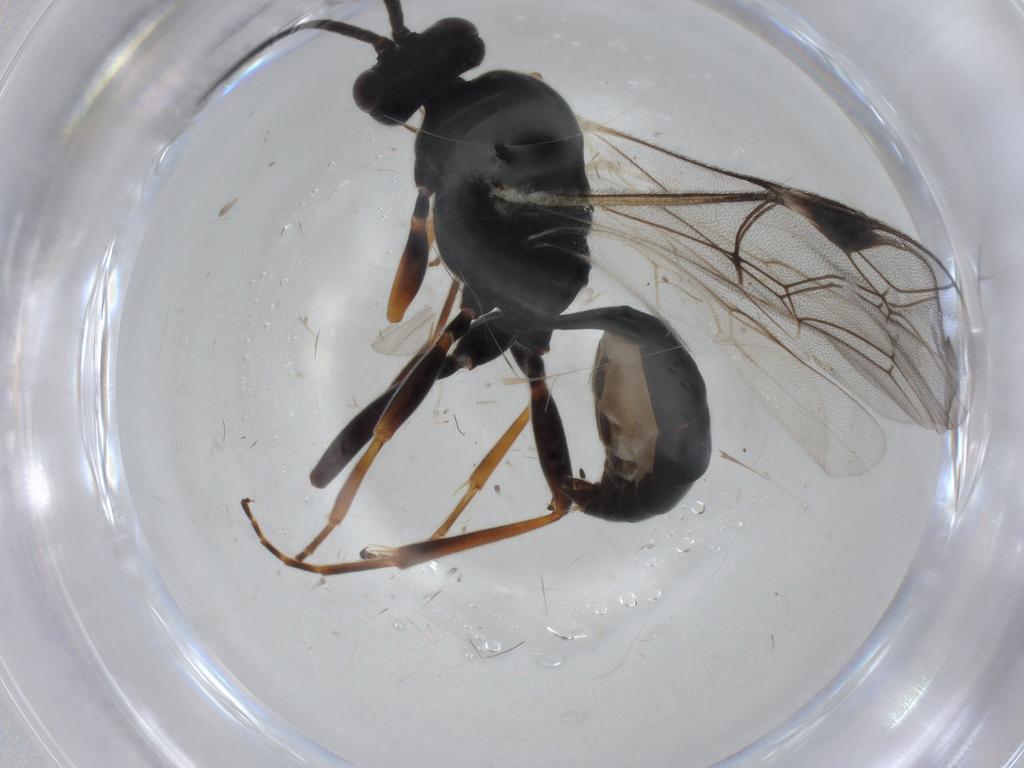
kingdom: Animalia
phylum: Arthropoda
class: Insecta
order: Hymenoptera
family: Braconidae
